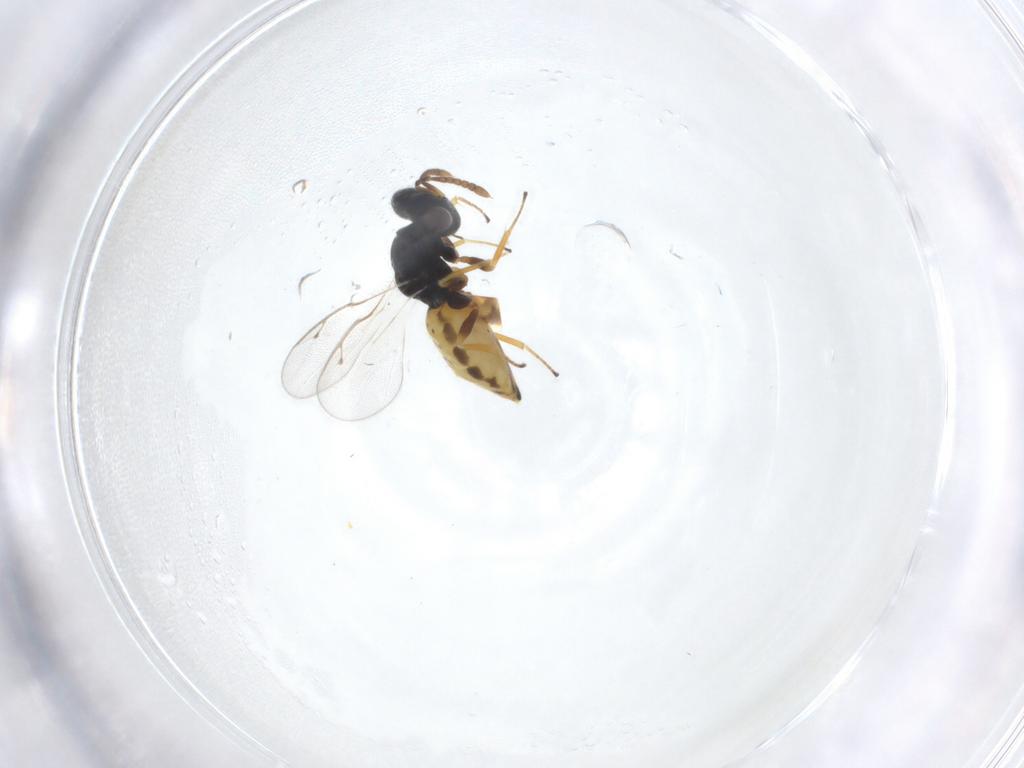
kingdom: Animalia
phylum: Arthropoda
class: Insecta
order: Hymenoptera
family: Pteromalidae
